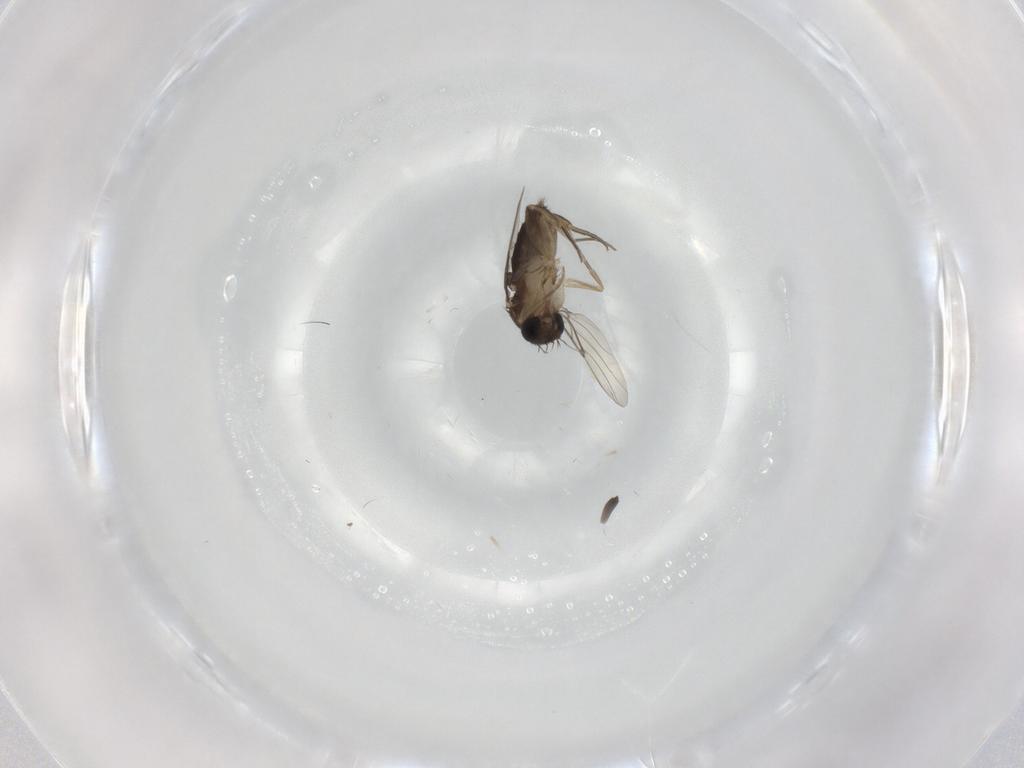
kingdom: Animalia
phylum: Arthropoda
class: Insecta
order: Diptera
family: Phoridae
